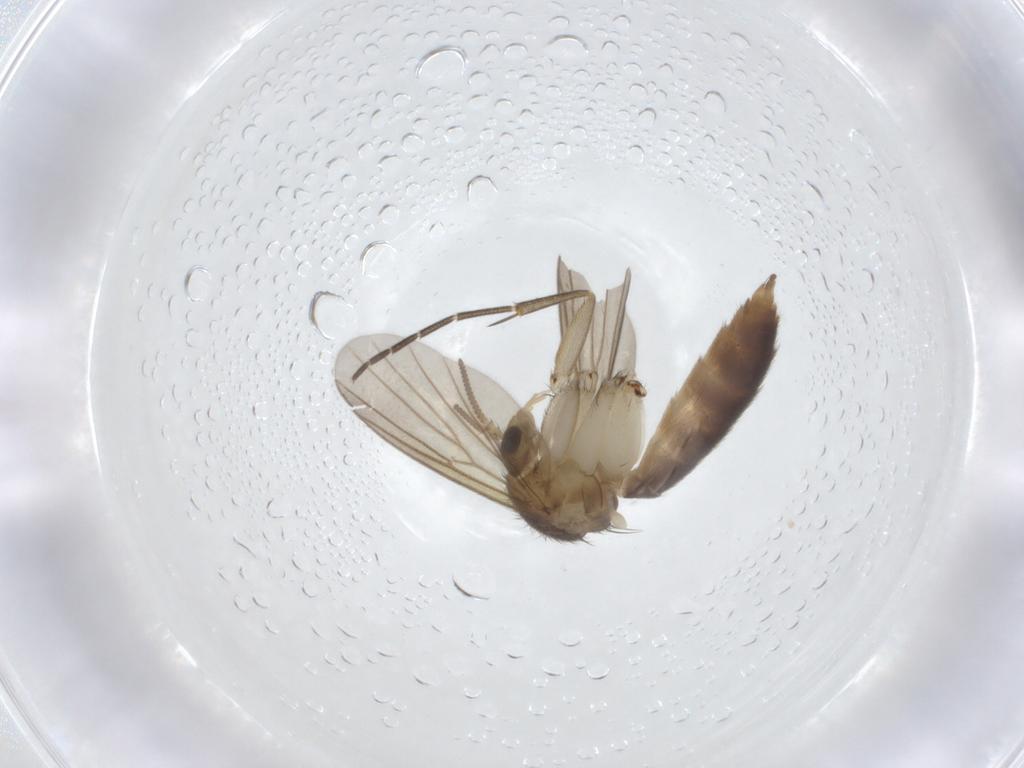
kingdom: Animalia
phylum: Arthropoda
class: Insecta
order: Diptera
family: Mycetophilidae
